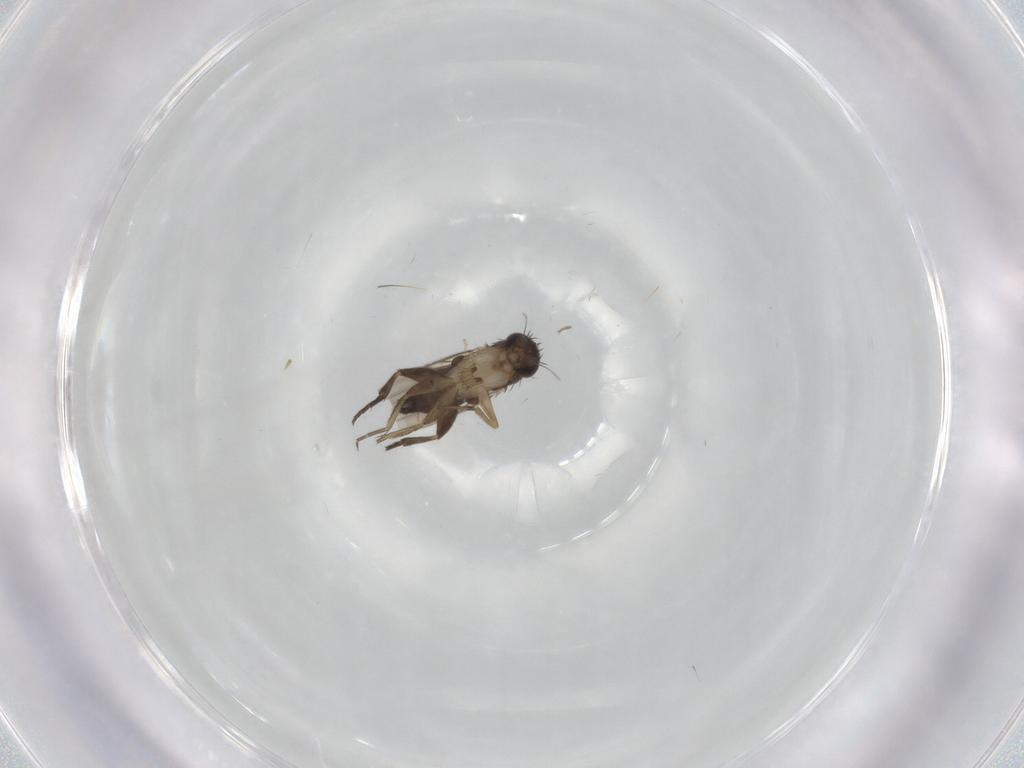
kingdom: Animalia
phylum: Arthropoda
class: Insecta
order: Diptera
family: Phoridae
